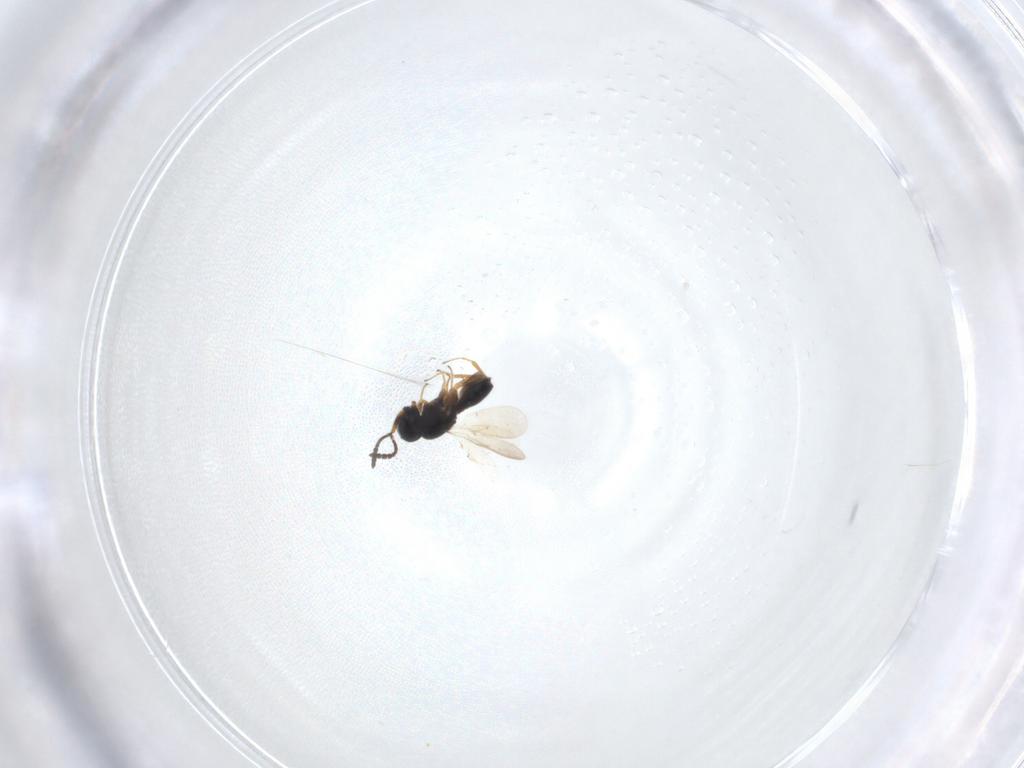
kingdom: Animalia
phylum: Arthropoda
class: Insecta
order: Hymenoptera
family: Scelionidae
